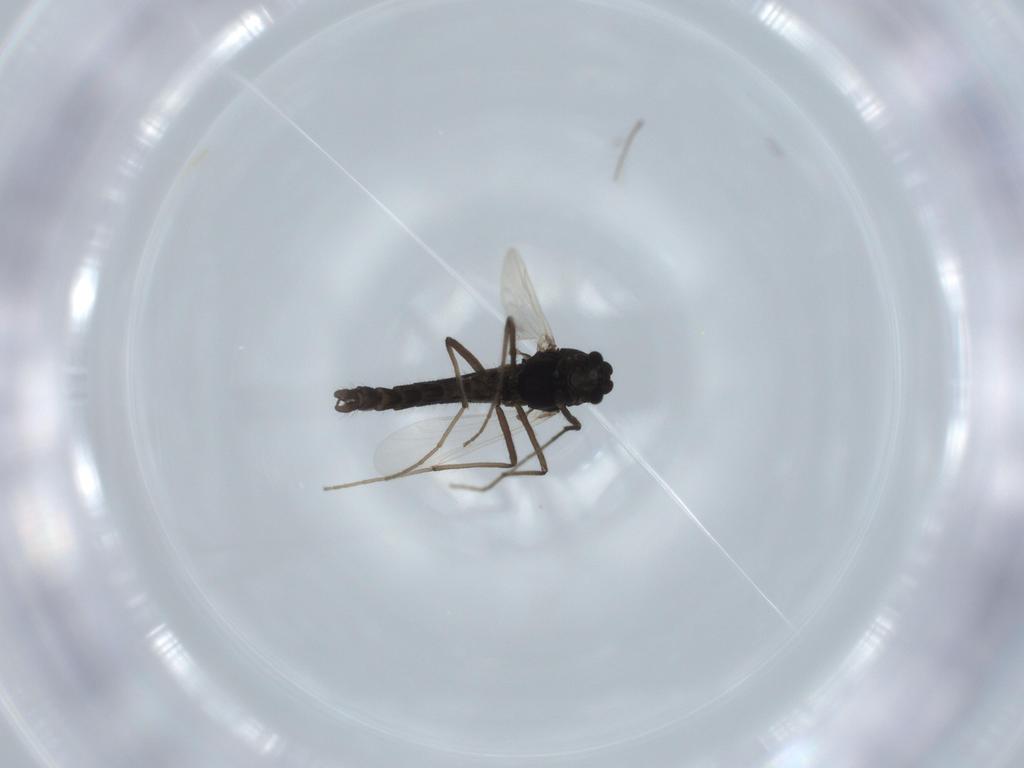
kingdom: Animalia
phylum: Arthropoda
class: Insecta
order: Diptera
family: Chironomidae
